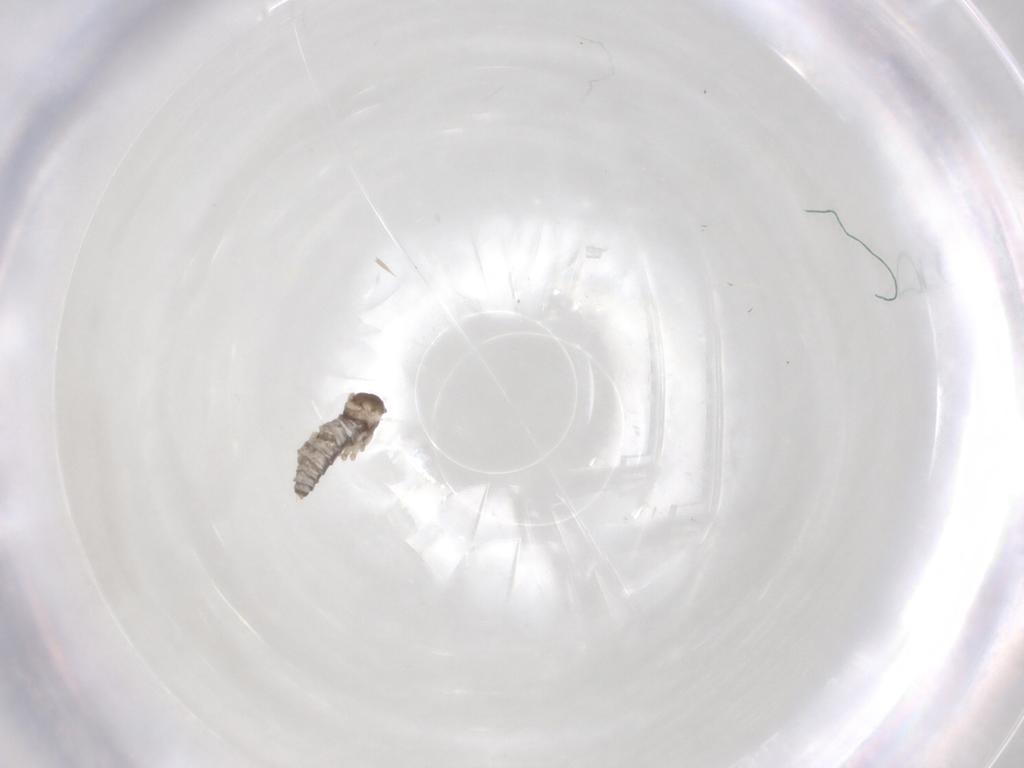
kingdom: Animalia
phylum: Arthropoda
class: Insecta
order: Diptera
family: Cecidomyiidae
